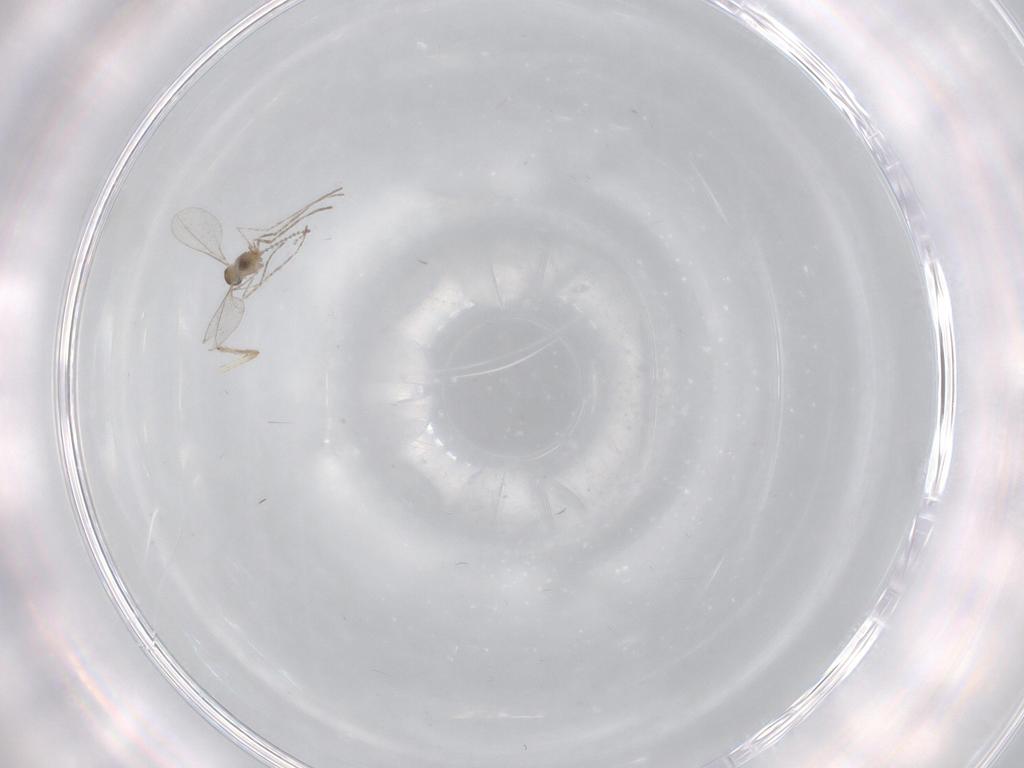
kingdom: Animalia
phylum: Arthropoda
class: Insecta
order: Diptera
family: Cecidomyiidae
